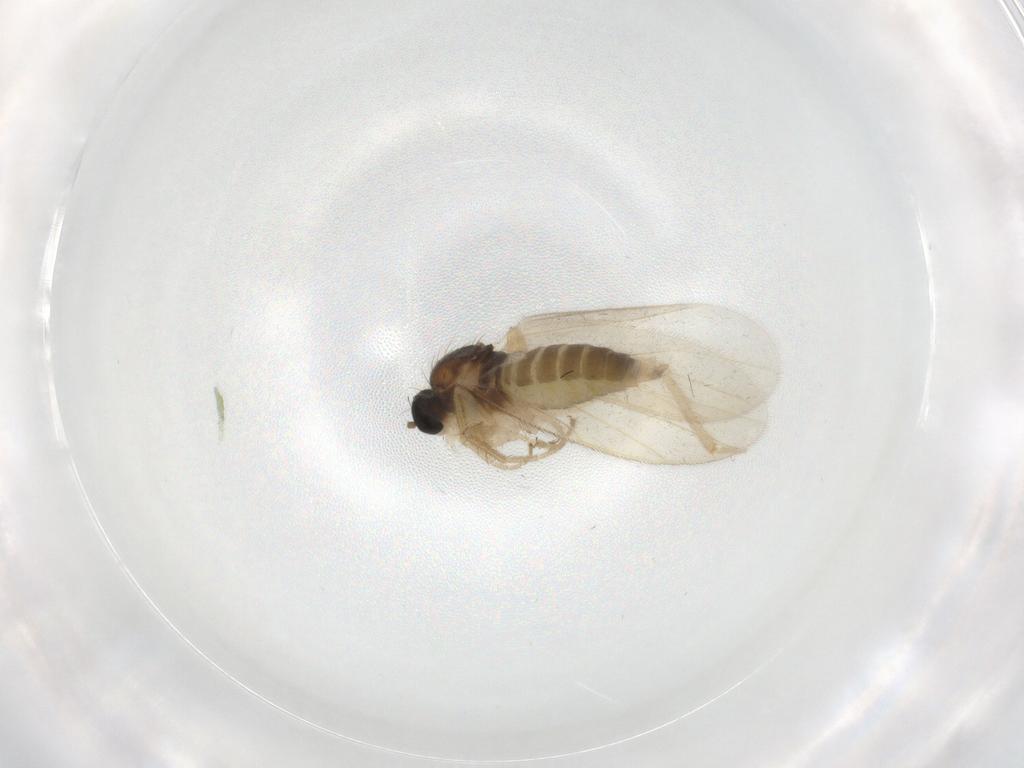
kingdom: Animalia
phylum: Arthropoda
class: Insecta
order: Diptera
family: Hybotidae
